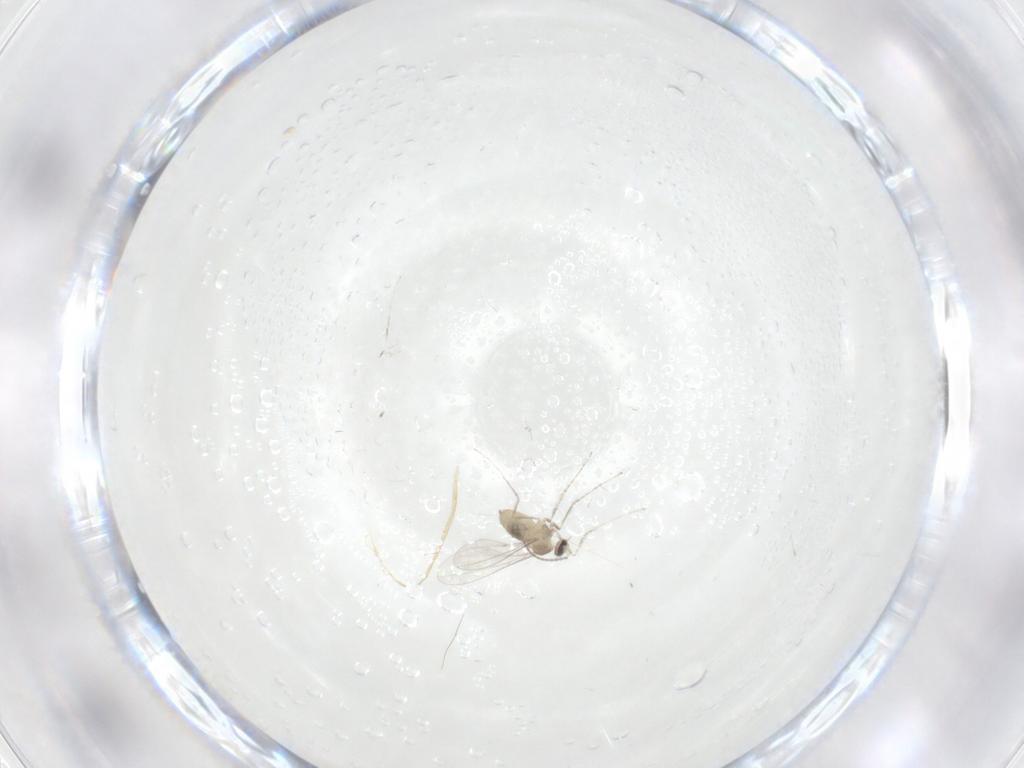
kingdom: Animalia
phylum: Arthropoda
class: Insecta
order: Diptera
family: Cecidomyiidae
